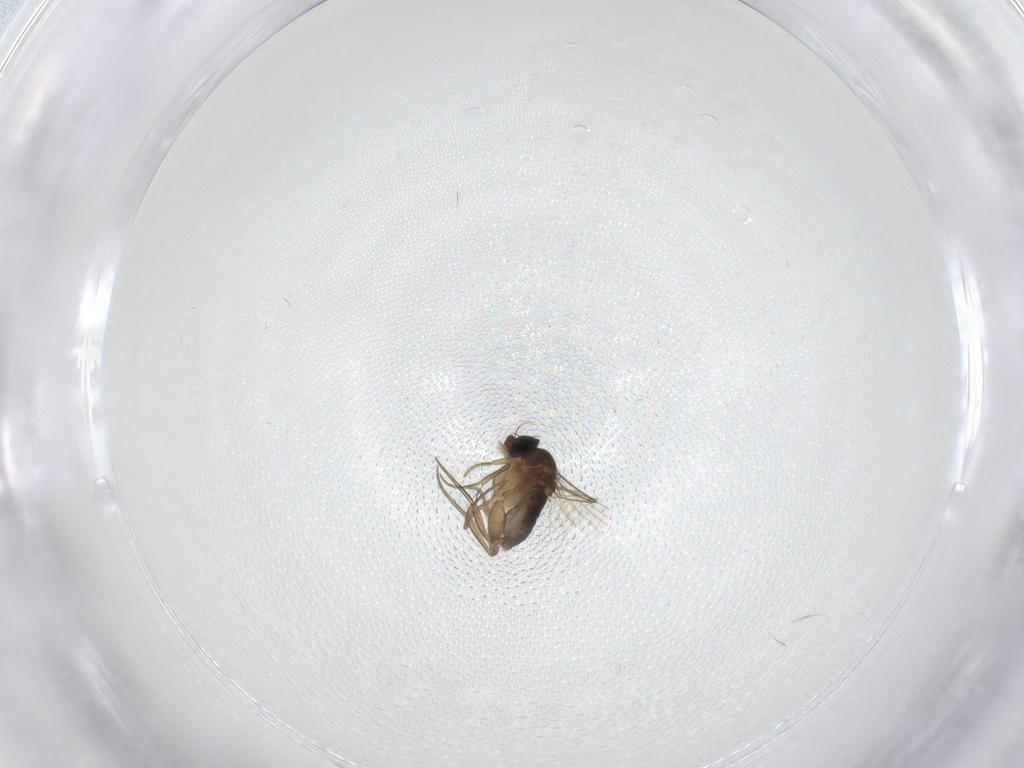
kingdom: Animalia
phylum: Arthropoda
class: Insecta
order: Diptera
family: Phoridae
